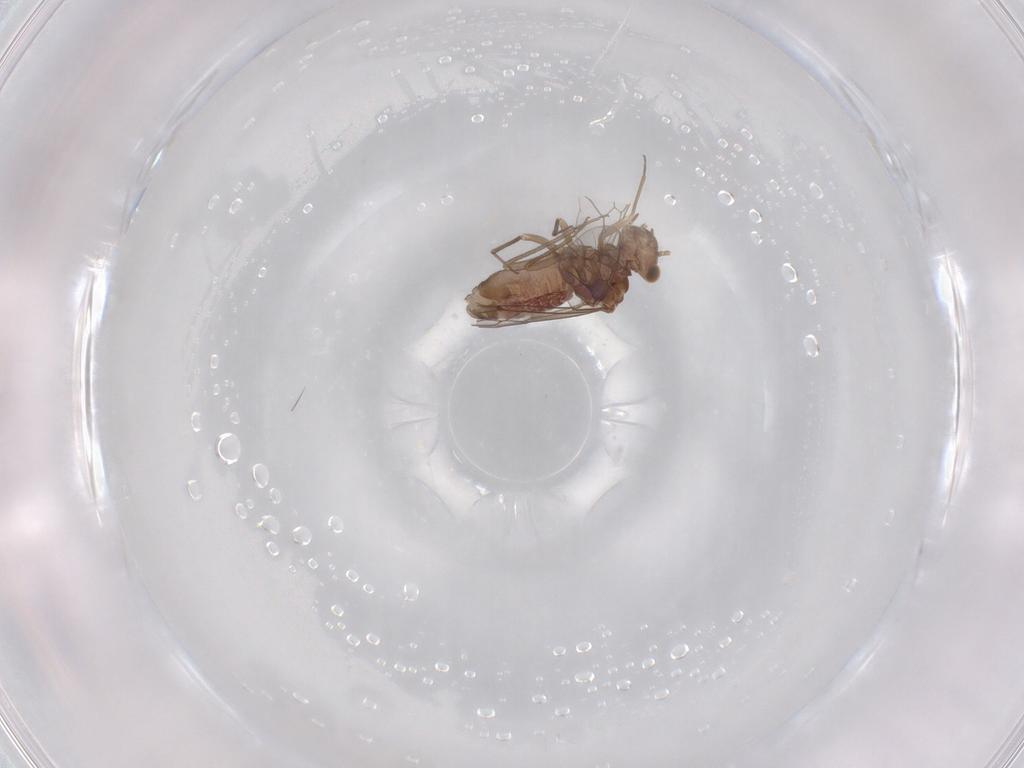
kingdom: Animalia
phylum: Arthropoda
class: Insecta
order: Psocodea
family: Lachesillidae
